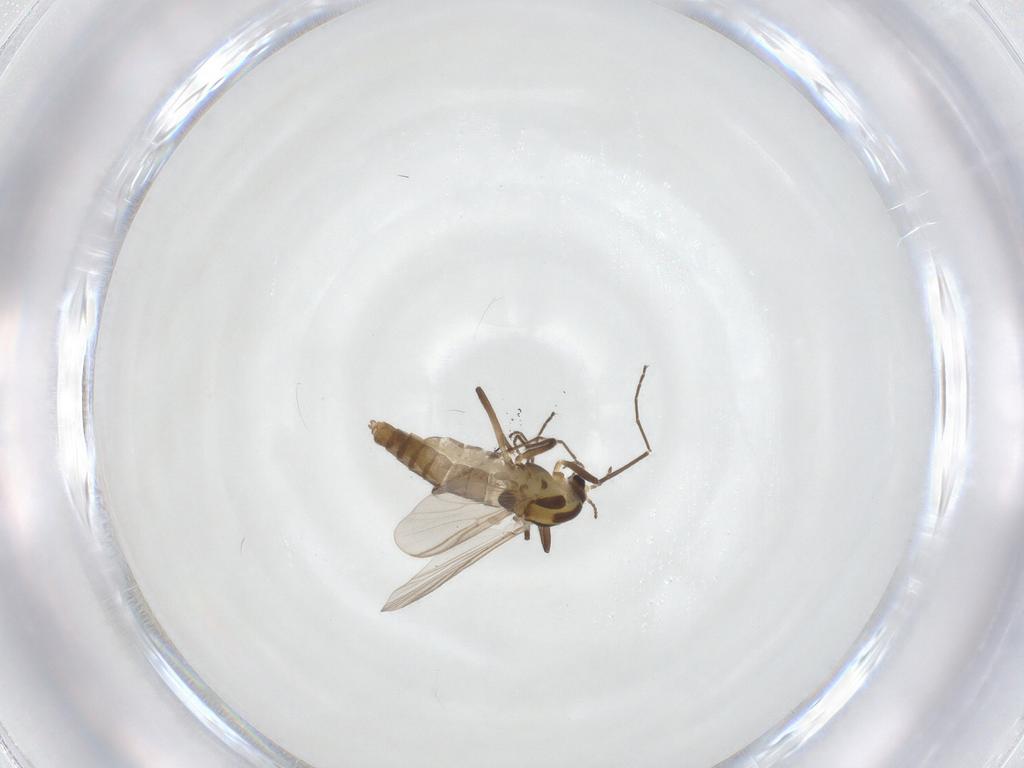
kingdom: Animalia
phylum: Arthropoda
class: Insecta
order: Diptera
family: Chironomidae
